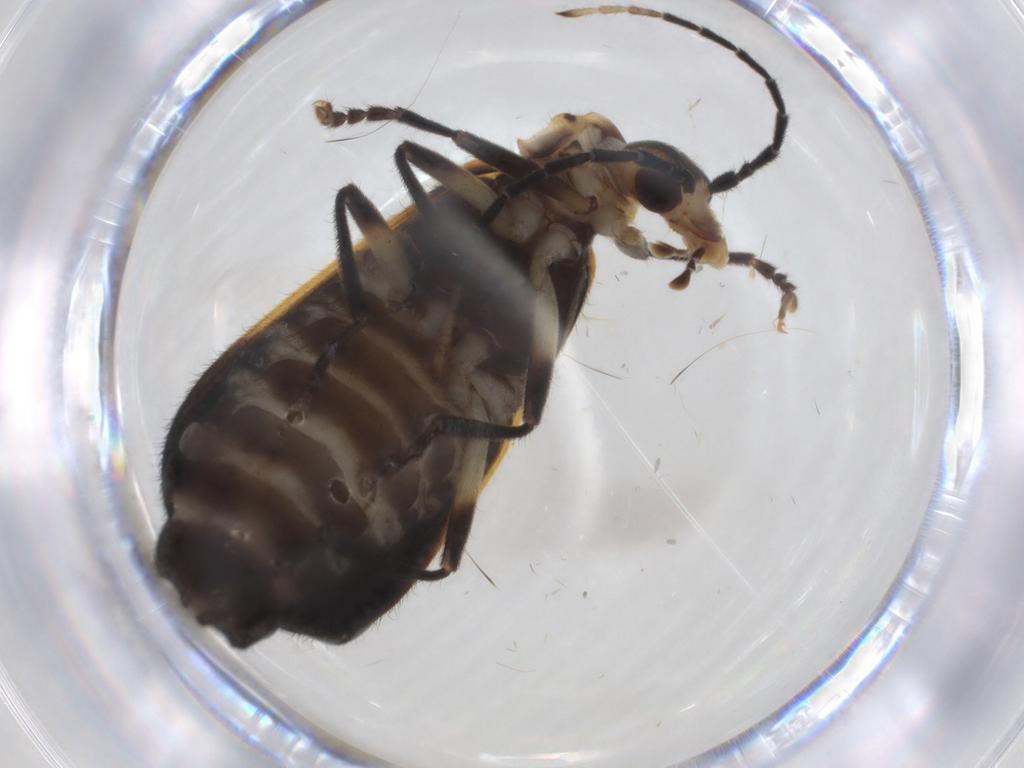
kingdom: Animalia
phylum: Arthropoda
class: Insecta
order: Coleoptera
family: Cantharidae
